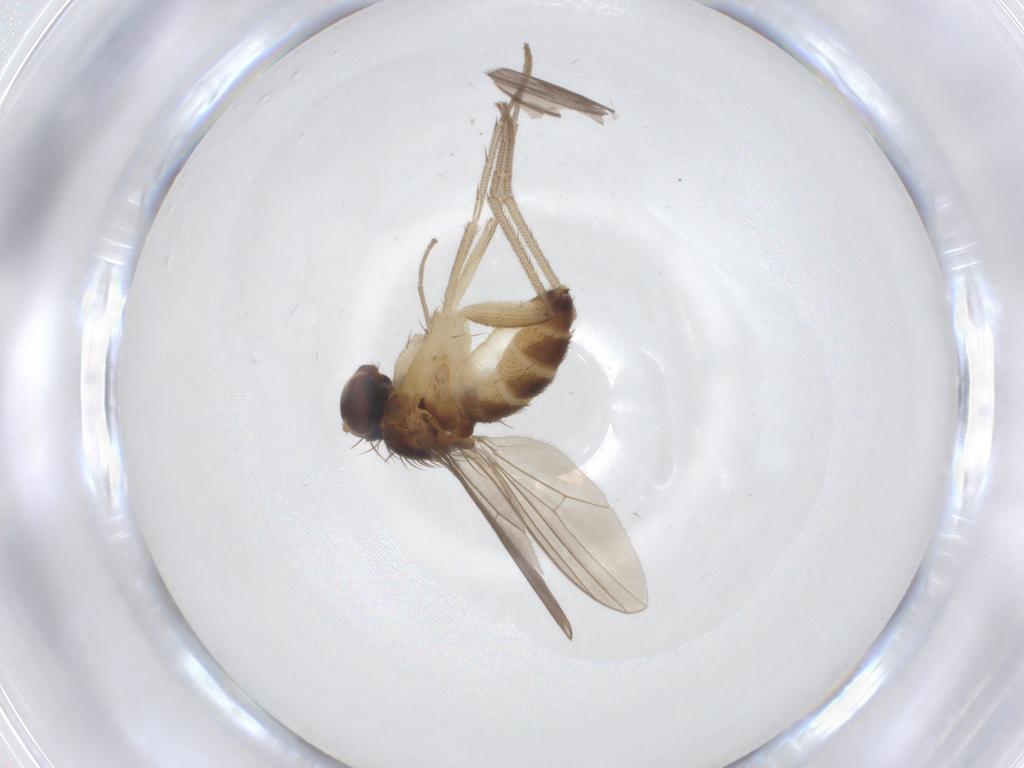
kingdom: Animalia
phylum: Arthropoda
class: Insecta
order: Diptera
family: Dolichopodidae
